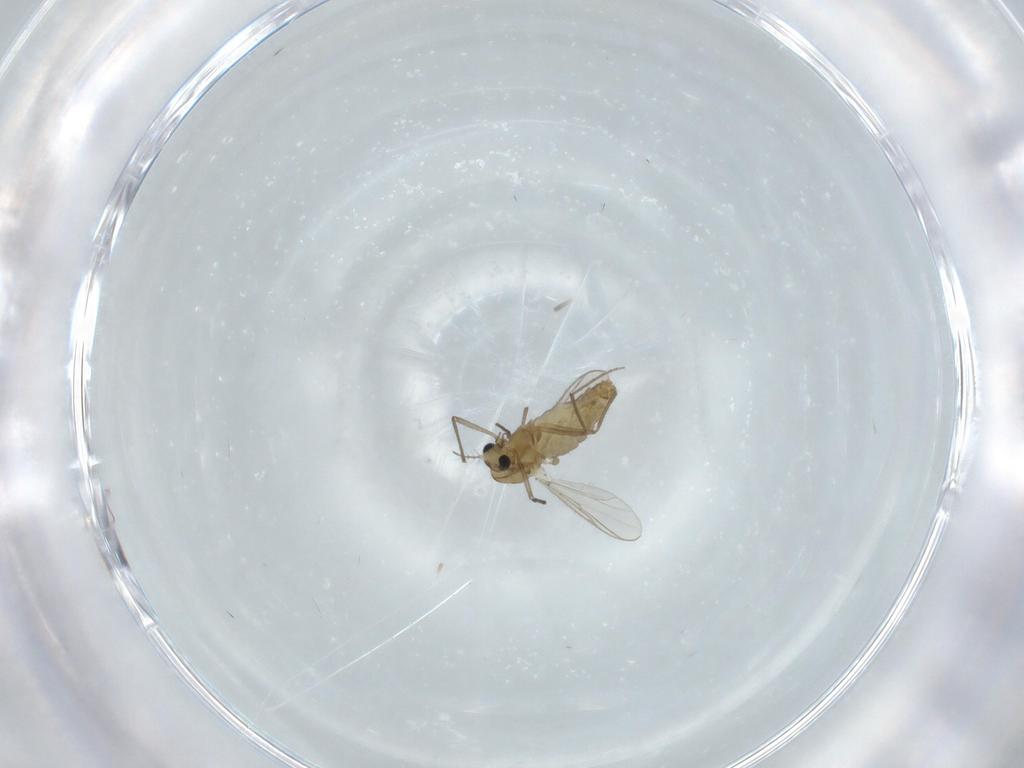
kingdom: Animalia
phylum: Arthropoda
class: Insecta
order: Diptera
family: Chironomidae
